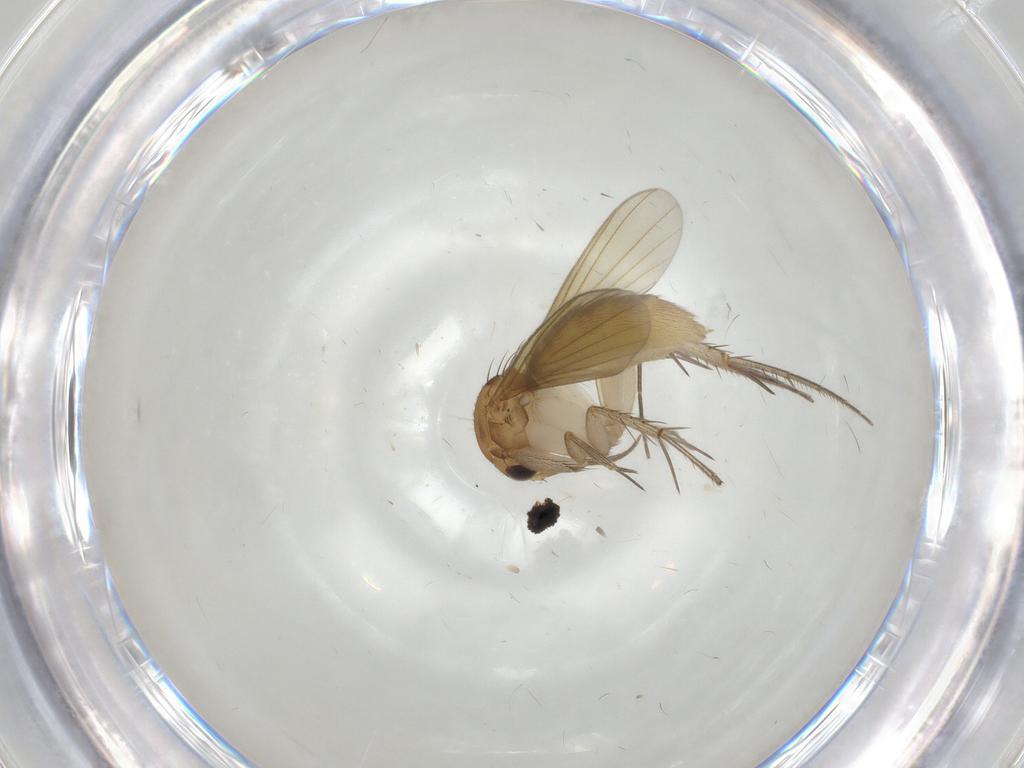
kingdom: Animalia
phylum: Arthropoda
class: Insecta
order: Diptera
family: Mycetophilidae
